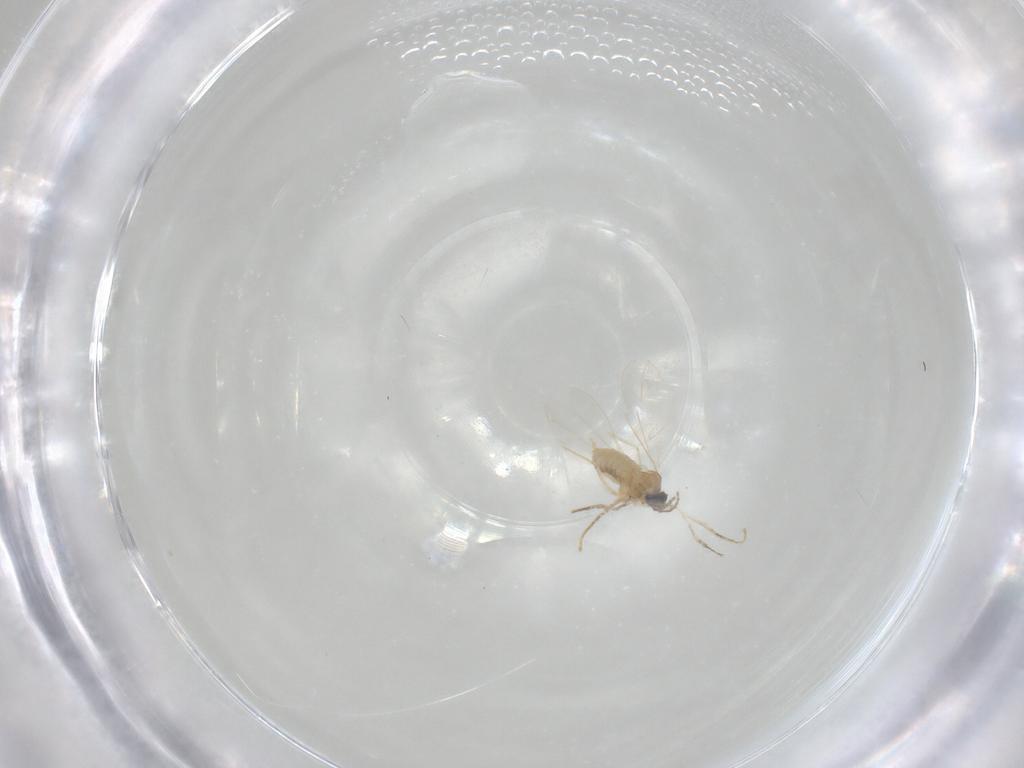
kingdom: Animalia
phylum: Arthropoda
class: Insecta
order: Diptera
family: Cecidomyiidae
